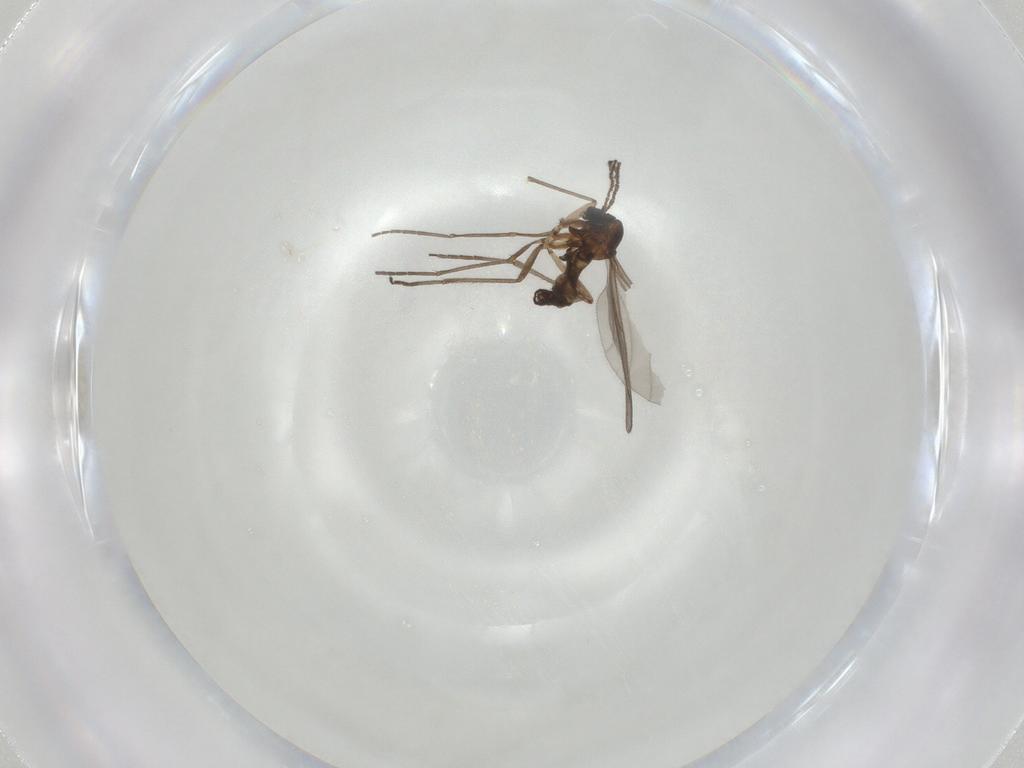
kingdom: Animalia
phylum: Arthropoda
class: Insecta
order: Diptera
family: Sciaridae
